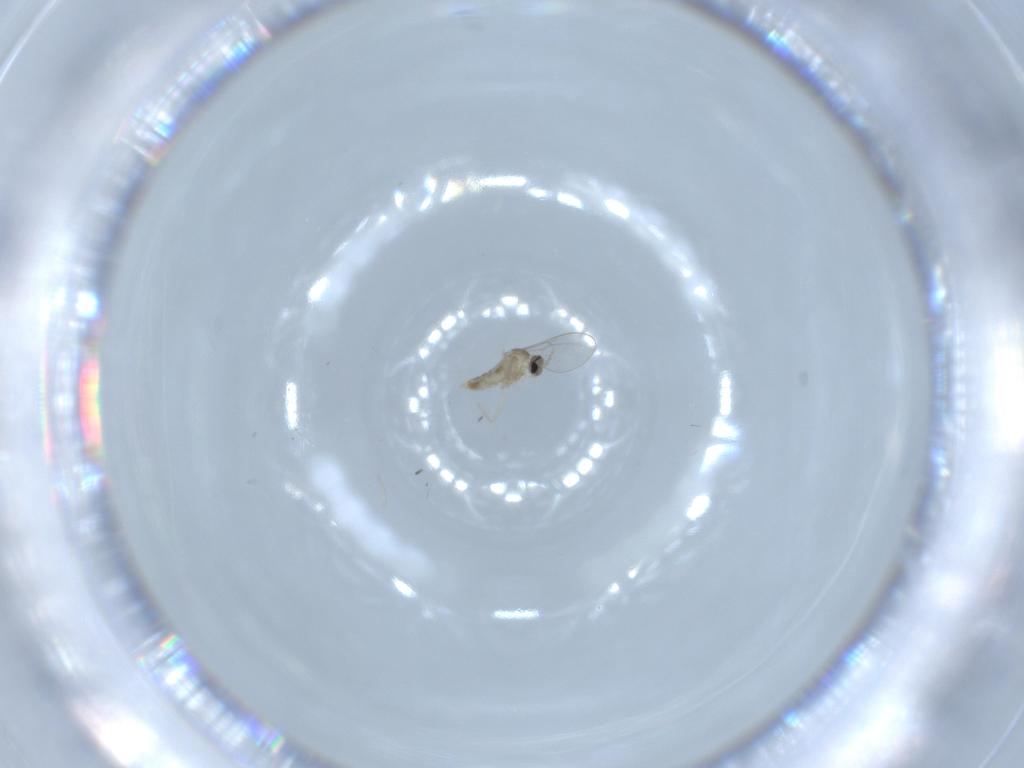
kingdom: Animalia
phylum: Arthropoda
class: Insecta
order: Diptera
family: Cecidomyiidae
